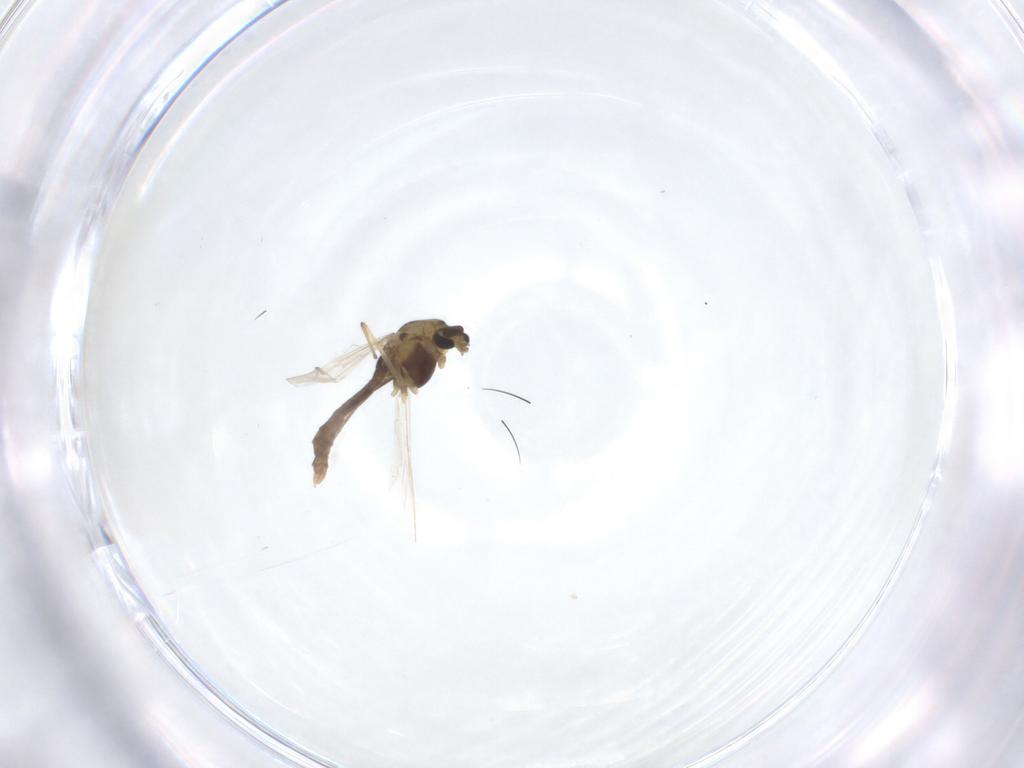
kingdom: Animalia
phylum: Arthropoda
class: Insecta
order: Diptera
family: Chironomidae
